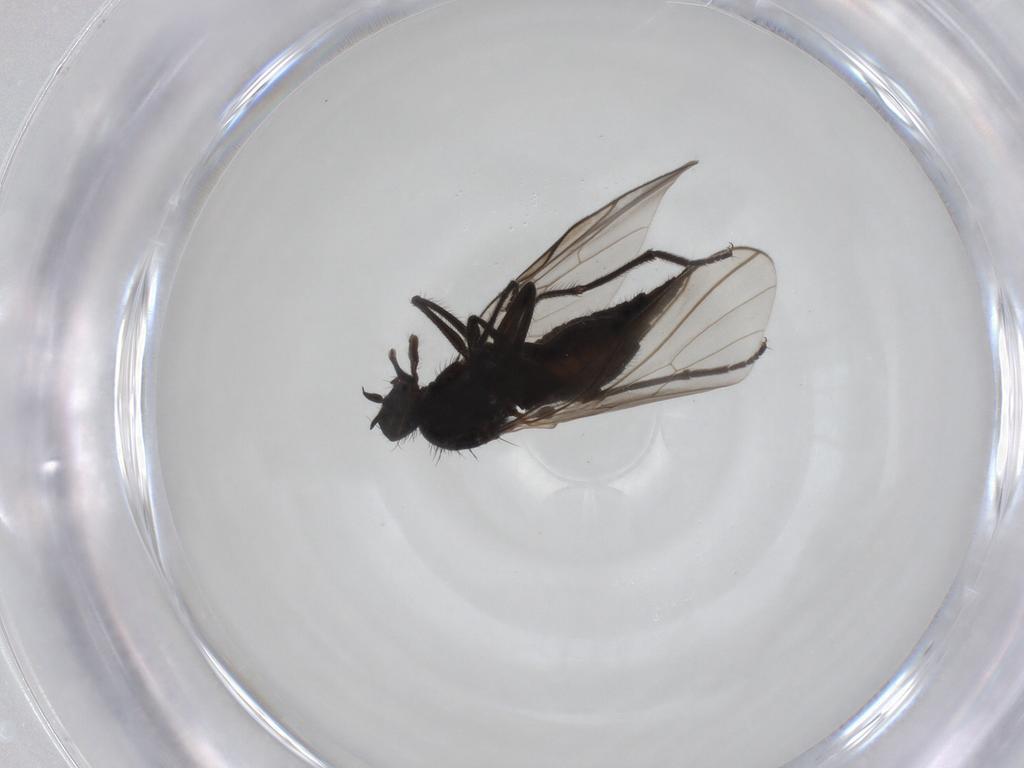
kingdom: Animalia
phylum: Arthropoda
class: Insecta
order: Diptera
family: Empididae
